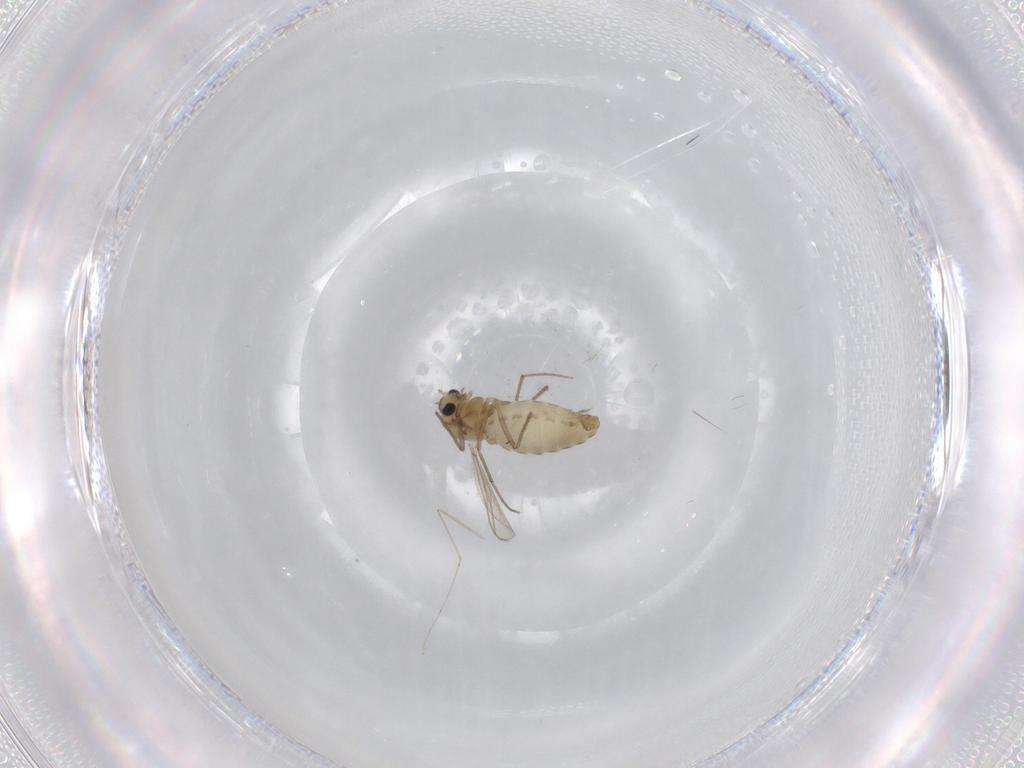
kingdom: Animalia
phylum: Arthropoda
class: Insecta
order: Diptera
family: Chironomidae
